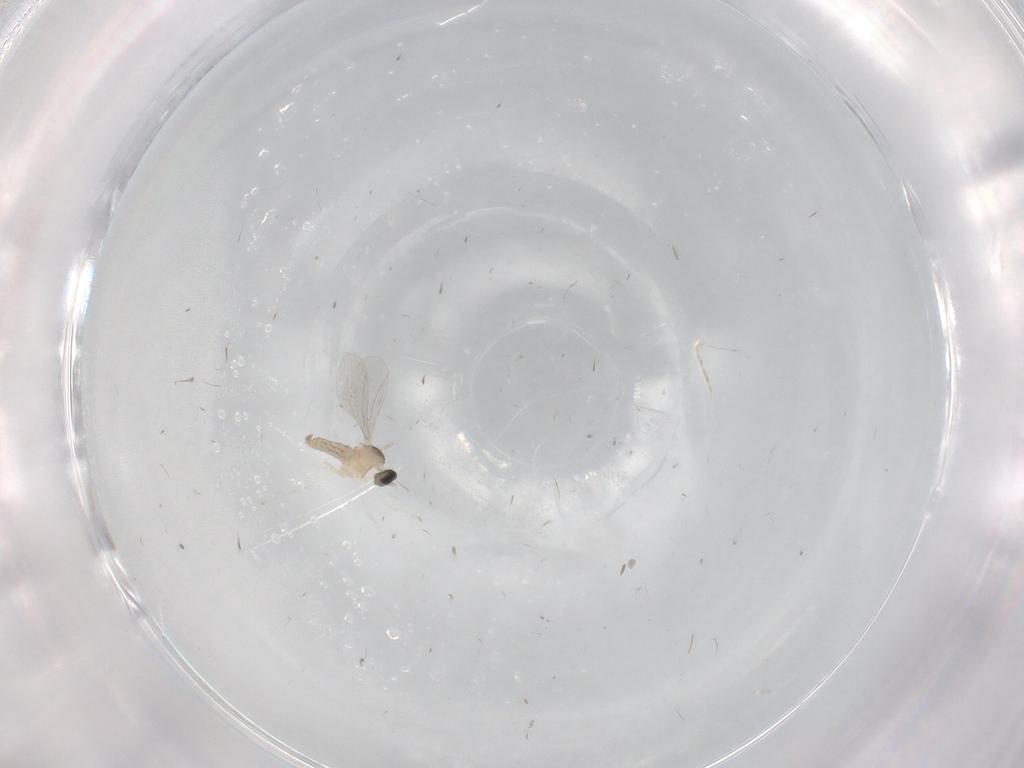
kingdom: Animalia
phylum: Arthropoda
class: Insecta
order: Diptera
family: Cecidomyiidae
